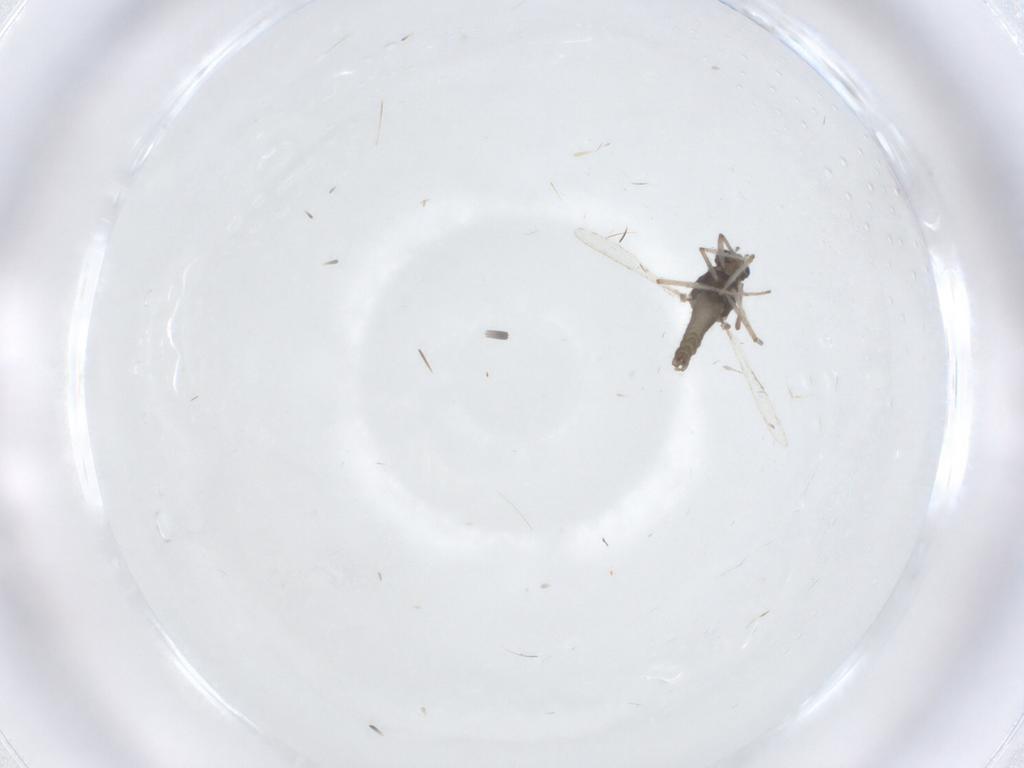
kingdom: Animalia
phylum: Arthropoda
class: Insecta
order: Diptera
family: Chironomidae
